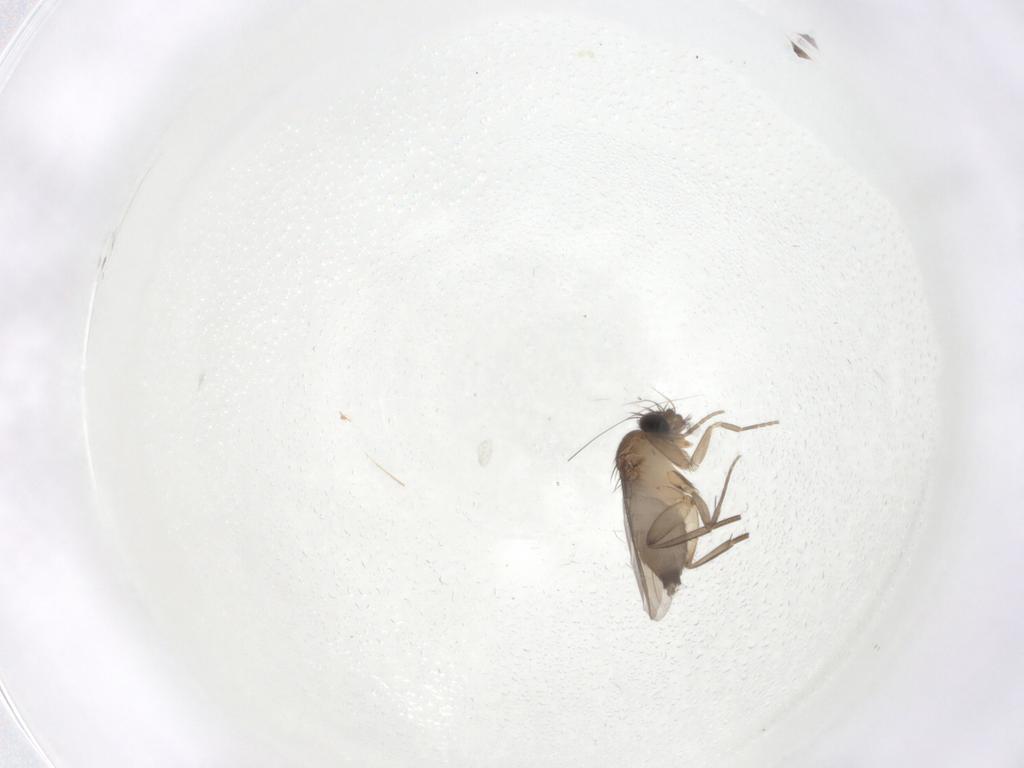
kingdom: Animalia
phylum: Arthropoda
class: Insecta
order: Diptera
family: Phoridae
